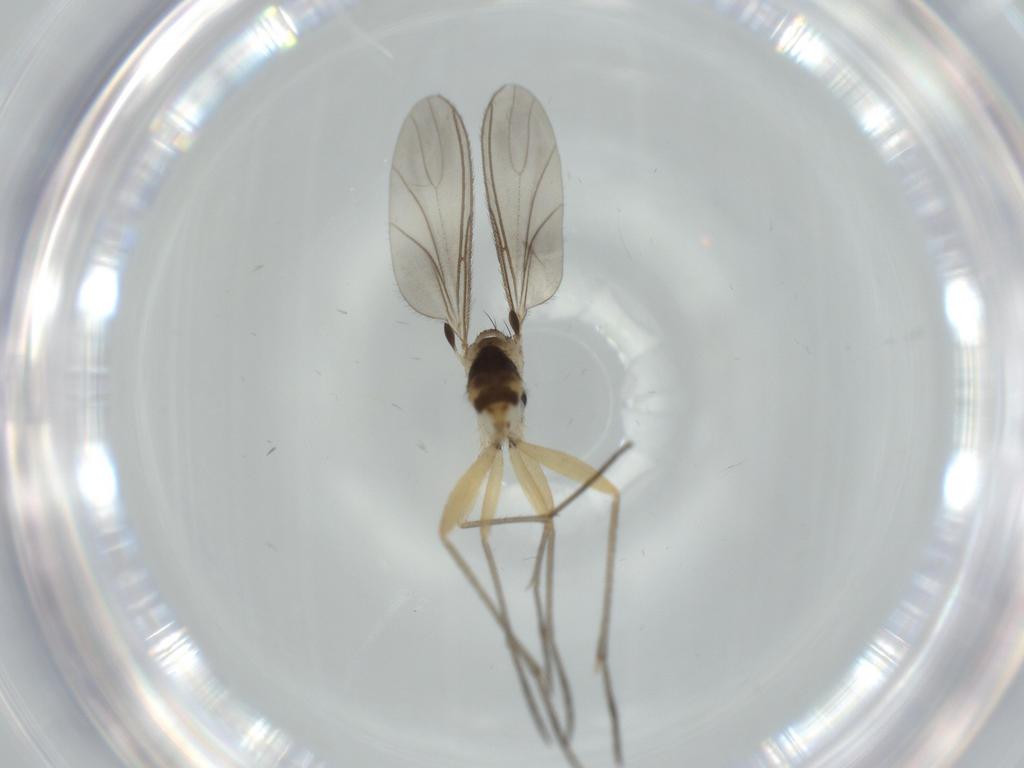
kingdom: Animalia
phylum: Arthropoda
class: Insecta
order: Diptera
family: Sciaridae
